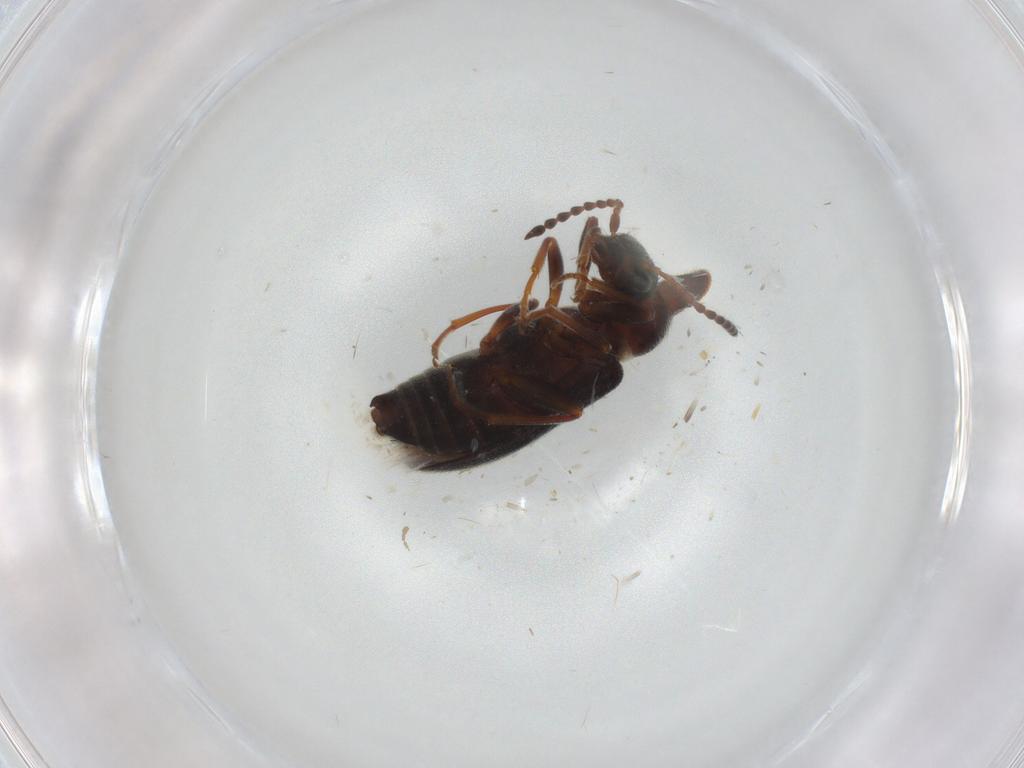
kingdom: Animalia
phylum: Arthropoda
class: Insecta
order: Coleoptera
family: Anthicidae
